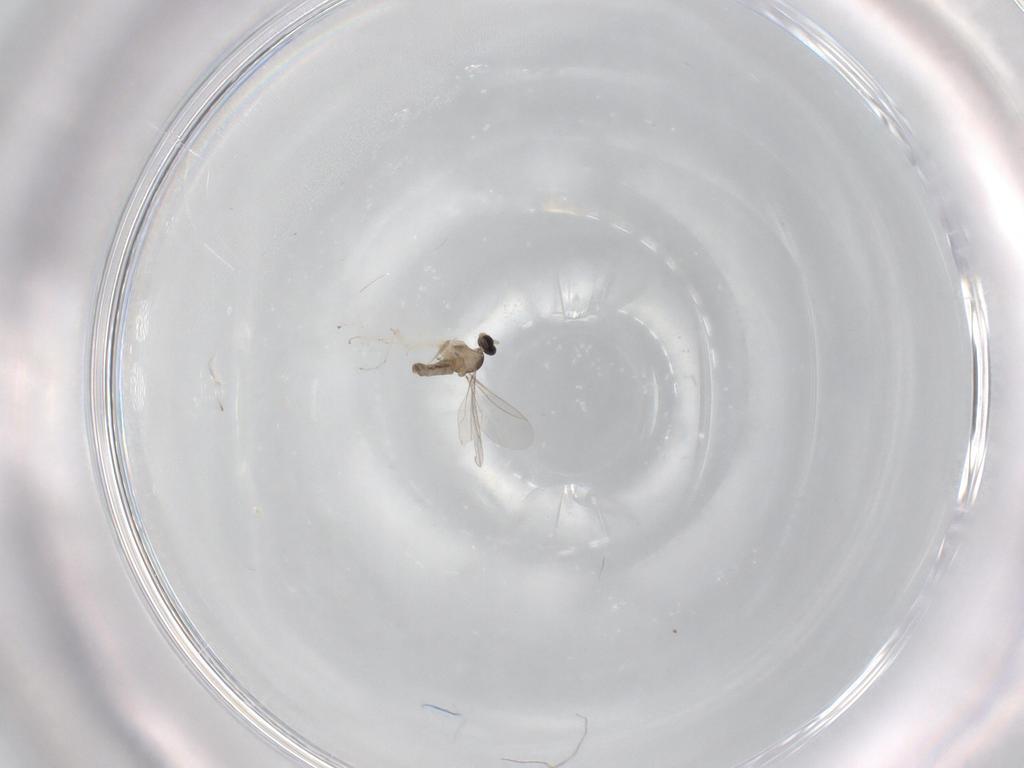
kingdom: Animalia
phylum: Arthropoda
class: Insecta
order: Diptera
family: Cecidomyiidae
